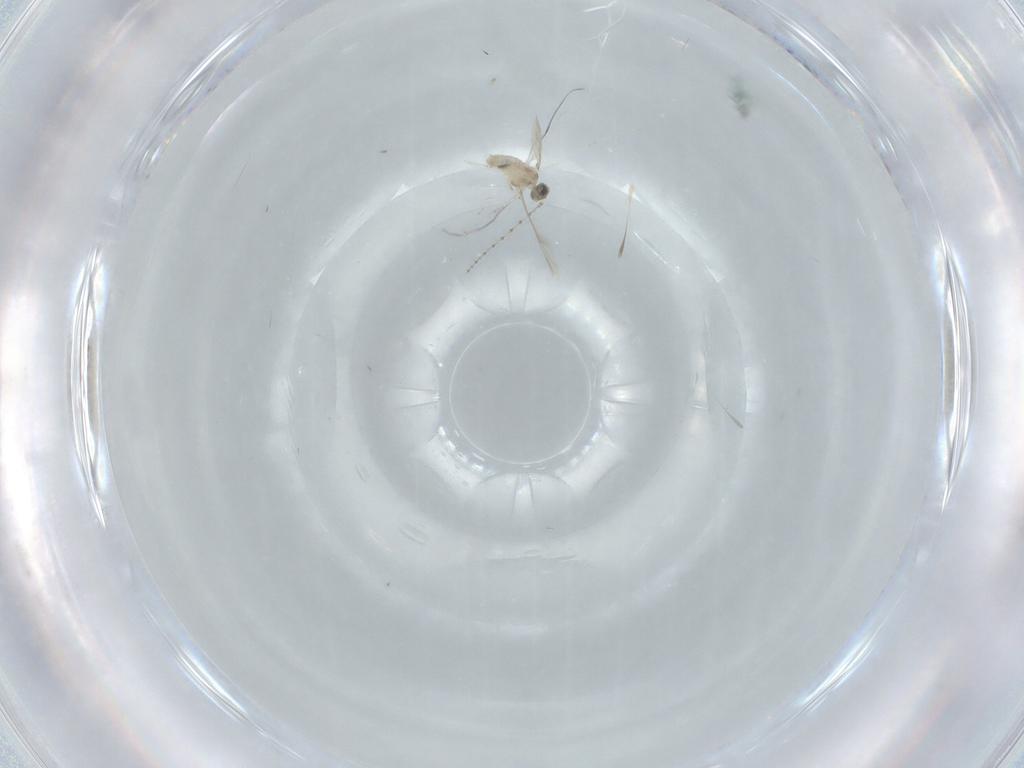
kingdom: Animalia
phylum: Arthropoda
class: Insecta
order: Diptera
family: Cecidomyiidae
